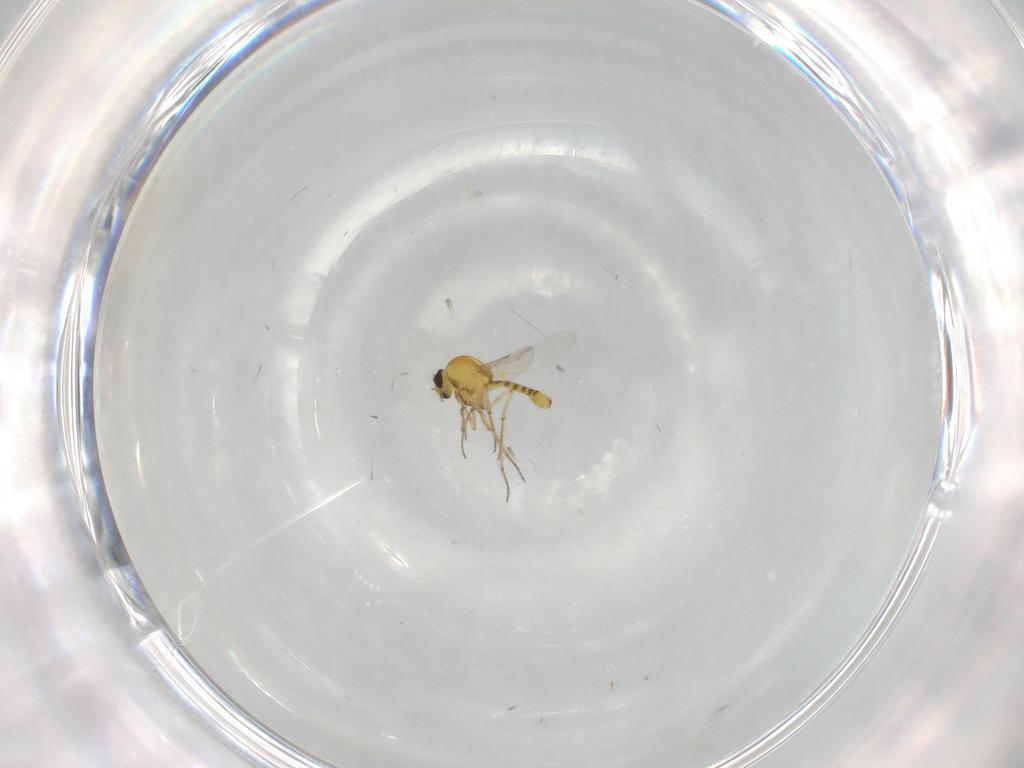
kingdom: Animalia
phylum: Arthropoda
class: Insecta
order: Diptera
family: Ceratopogonidae
